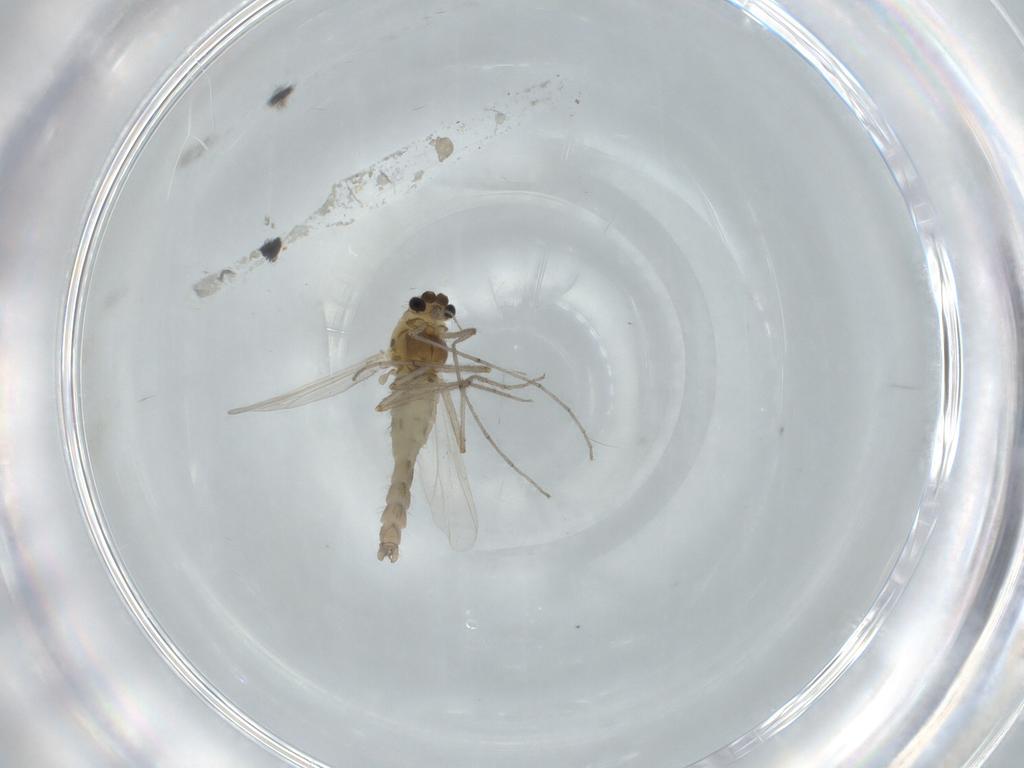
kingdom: Animalia
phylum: Arthropoda
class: Insecta
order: Diptera
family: Chironomidae
